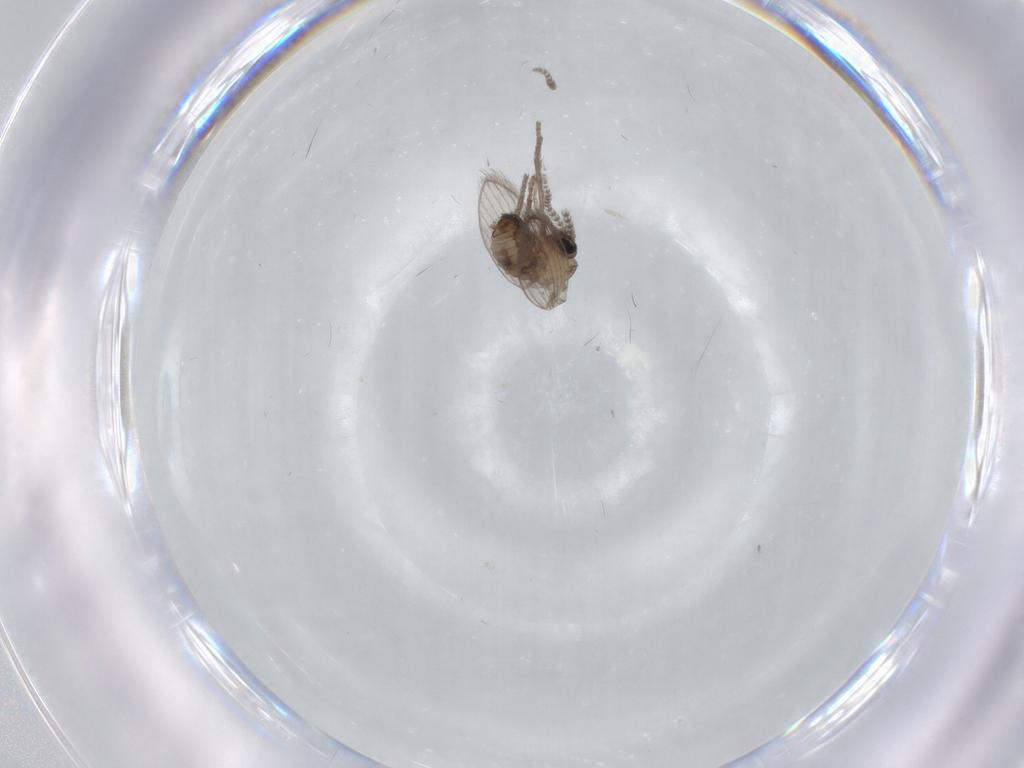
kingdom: Animalia
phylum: Arthropoda
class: Insecta
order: Diptera
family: Psychodidae
